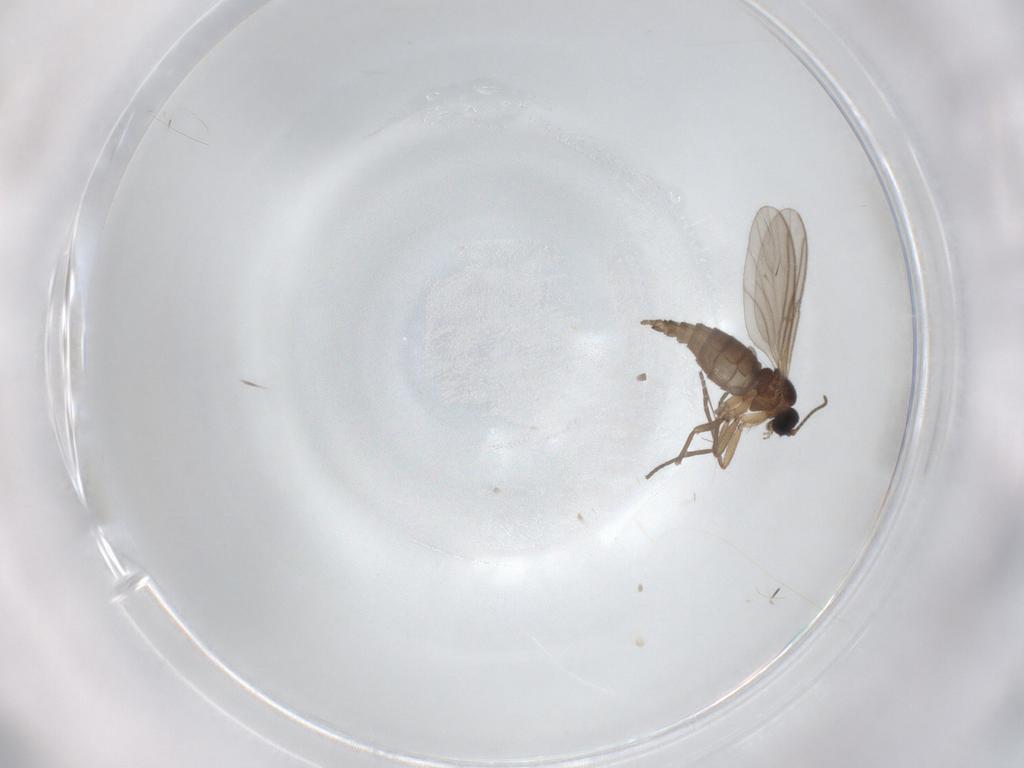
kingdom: Animalia
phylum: Arthropoda
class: Insecta
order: Diptera
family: Sciaridae
